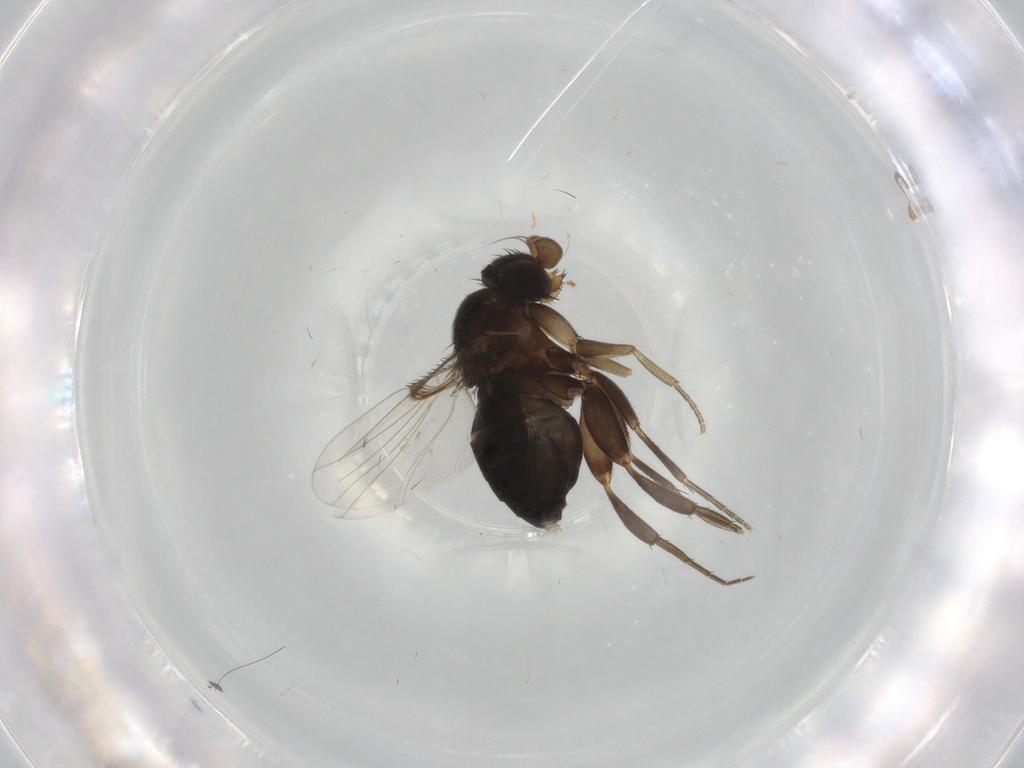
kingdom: Animalia
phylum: Arthropoda
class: Insecta
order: Diptera
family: Phoridae
